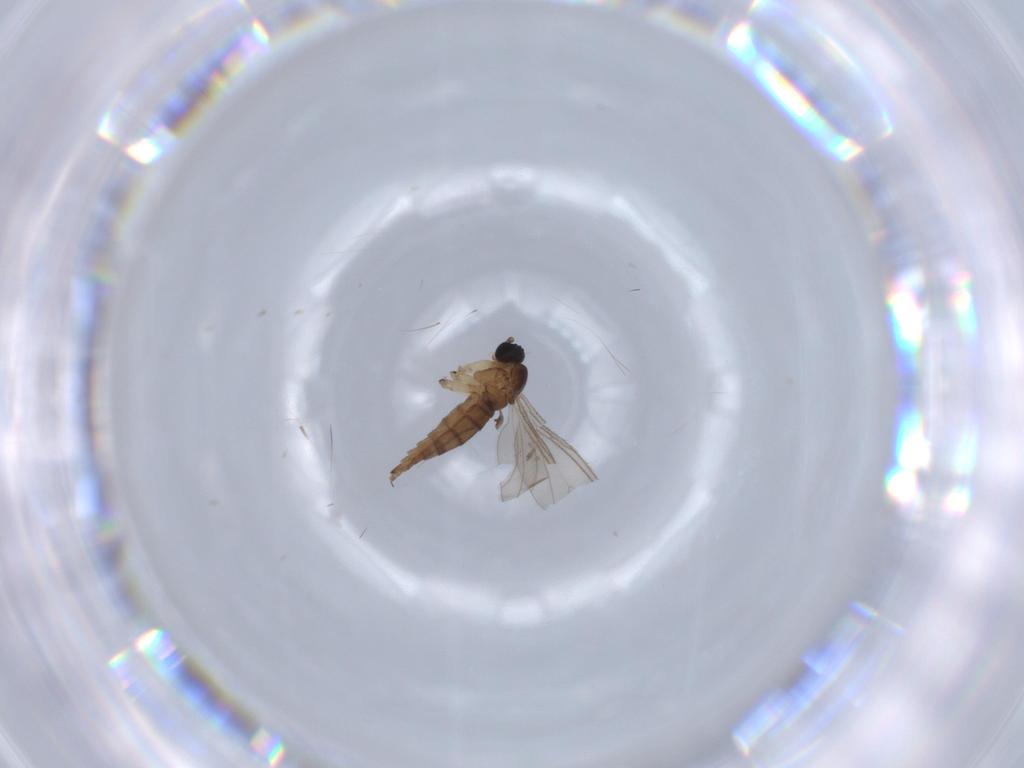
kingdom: Animalia
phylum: Arthropoda
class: Insecta
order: Diptera
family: Sciaridae
